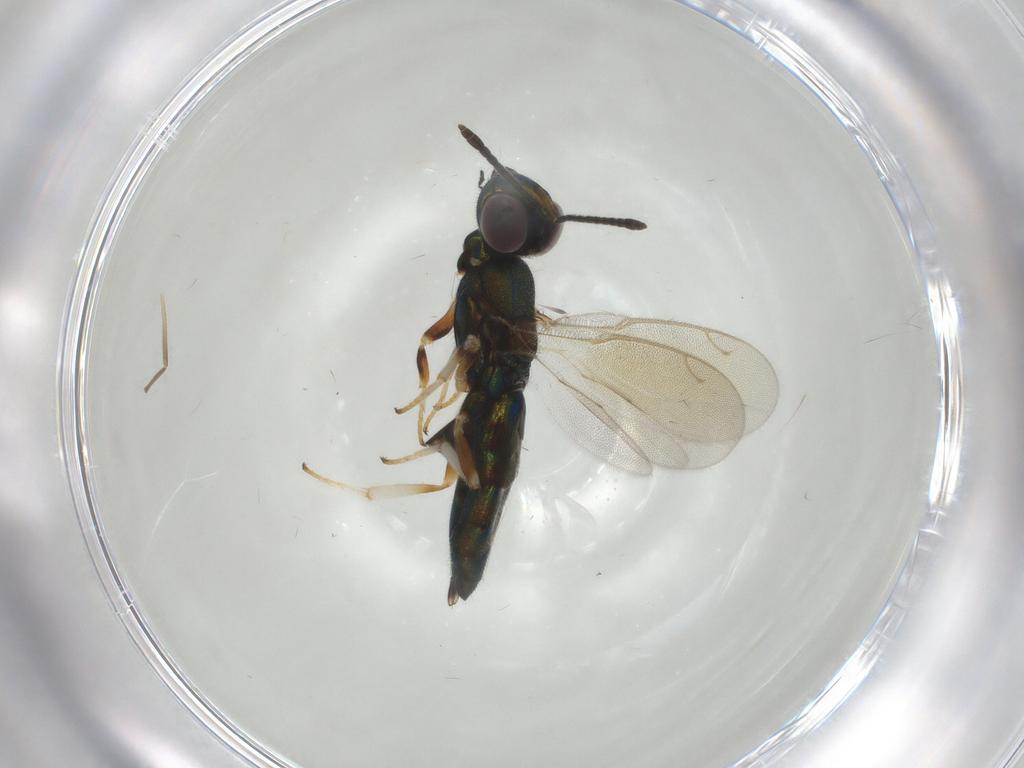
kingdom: Animalia
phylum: Arthropoda
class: Insecta
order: Hymenoptera
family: Eupelmidae
